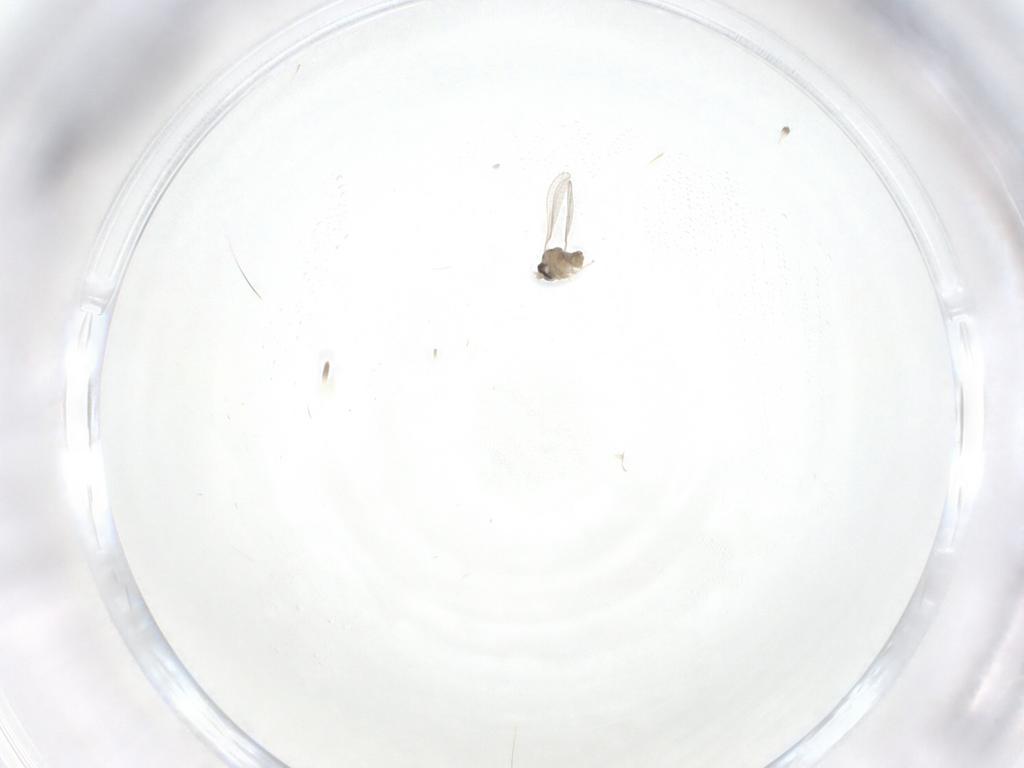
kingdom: Animalia
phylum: Arthropoda
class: Insecta
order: Diptera
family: Cecidomyiidae
